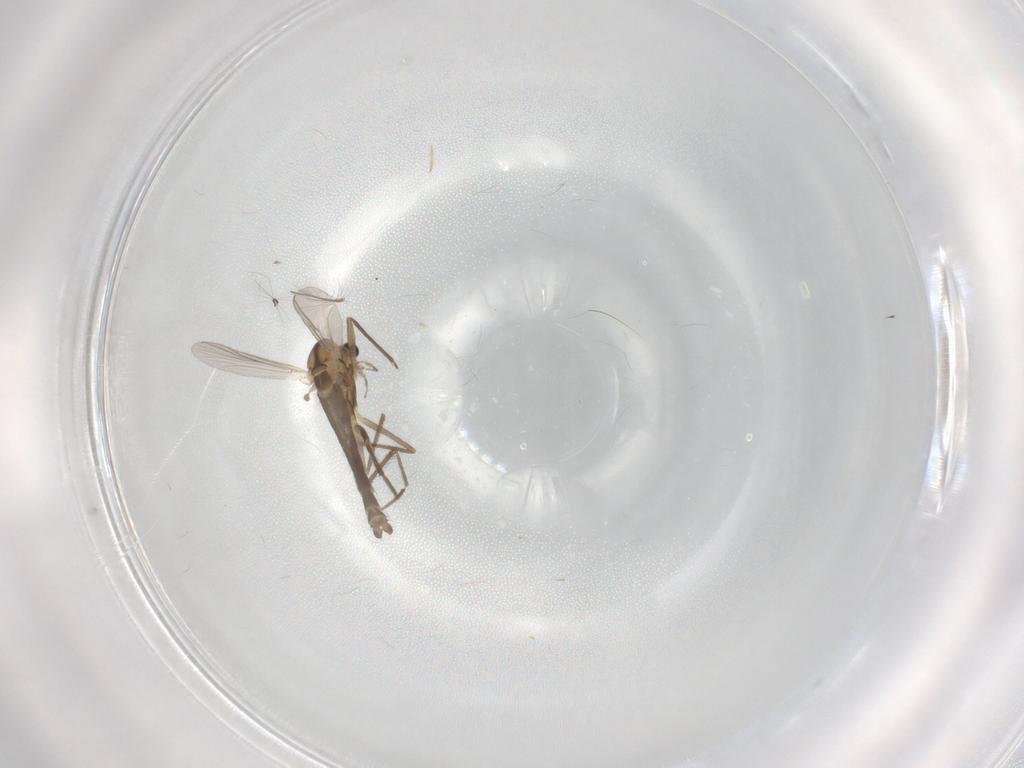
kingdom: Animalia
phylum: Arthropoda
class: Insecta
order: Diptera
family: Chironomidae
